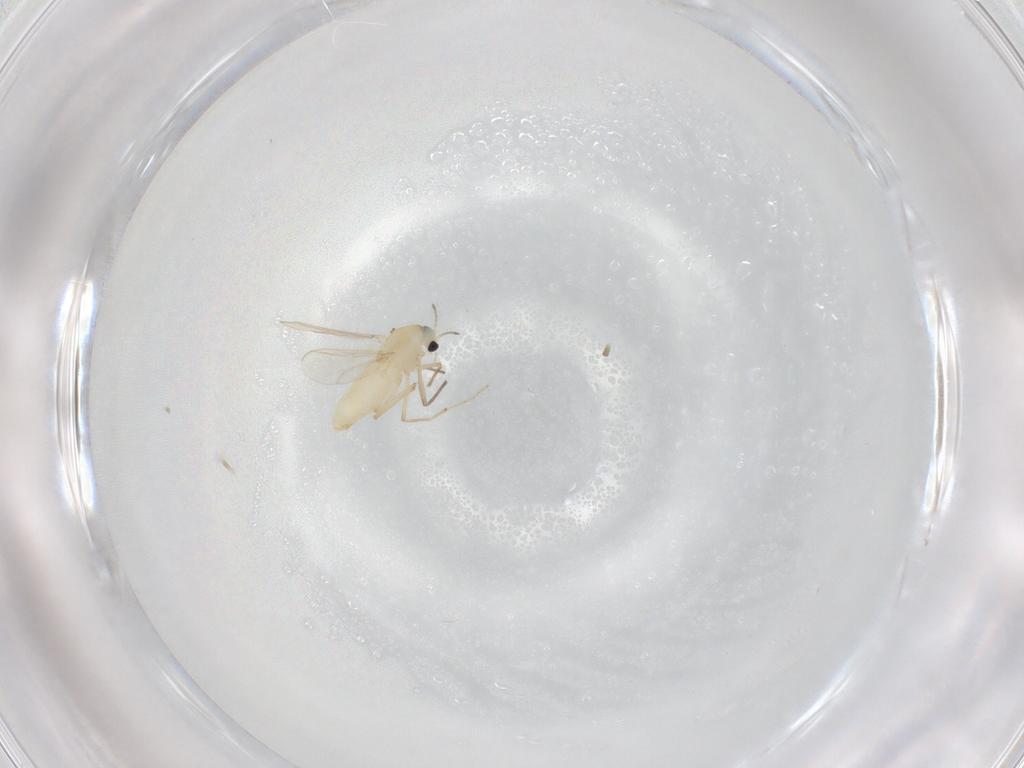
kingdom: Animalia
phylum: Arthropoda
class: Insecta
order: Diptera
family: Chironomidae
